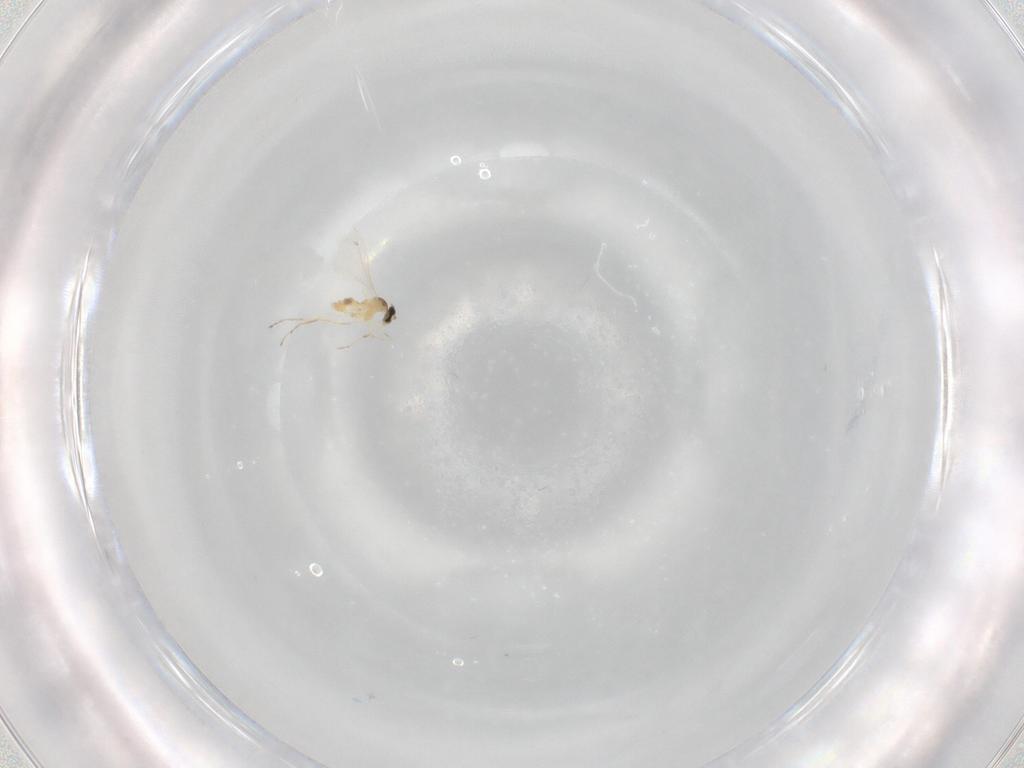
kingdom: Animalia
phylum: Arthropoda
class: Insecta
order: Diptera
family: Cecidomyiidae
